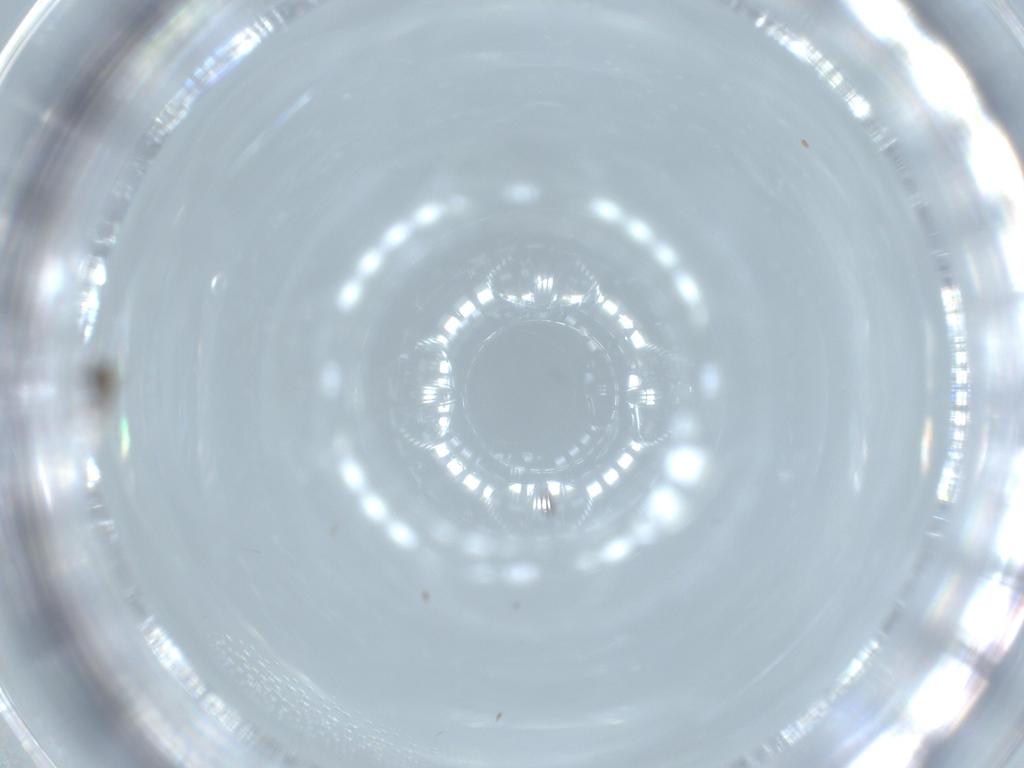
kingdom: Animalia
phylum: Arthropoda
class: Insecta
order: Diptera
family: Cecidomyiidae
